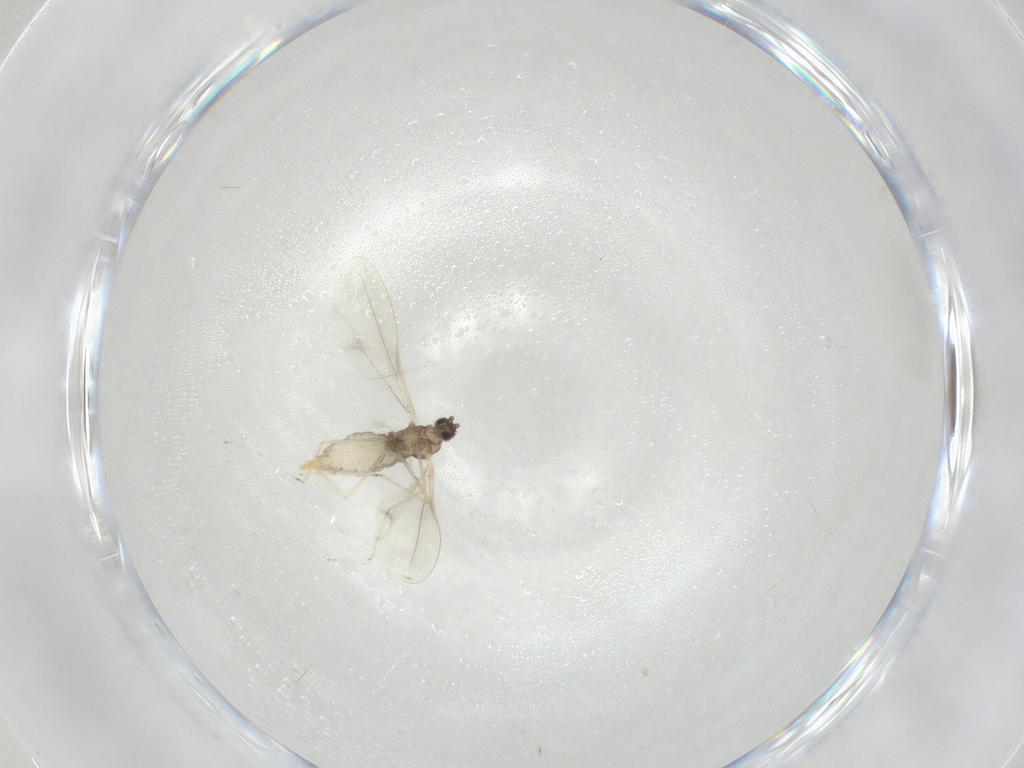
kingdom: Animalia
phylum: Arthropoda
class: Insecta
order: Diptera
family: Cecidomyiidae
